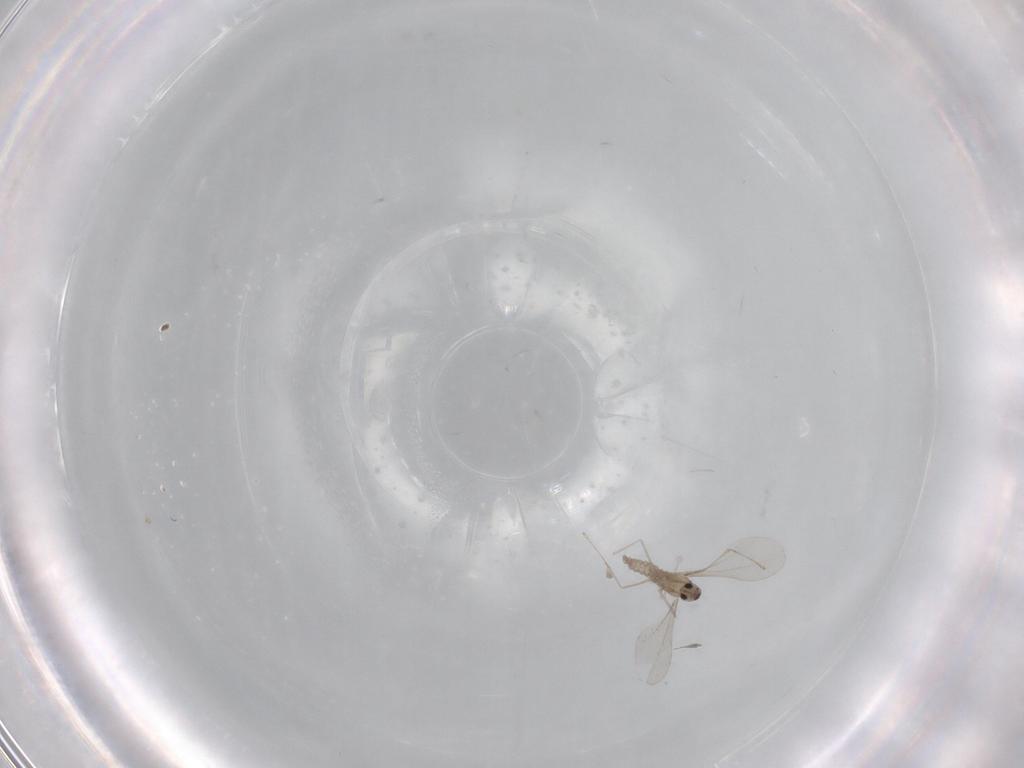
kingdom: Animalia
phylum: Arthropoda
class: Insecta
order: Diptera
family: Cecidomyiidae
